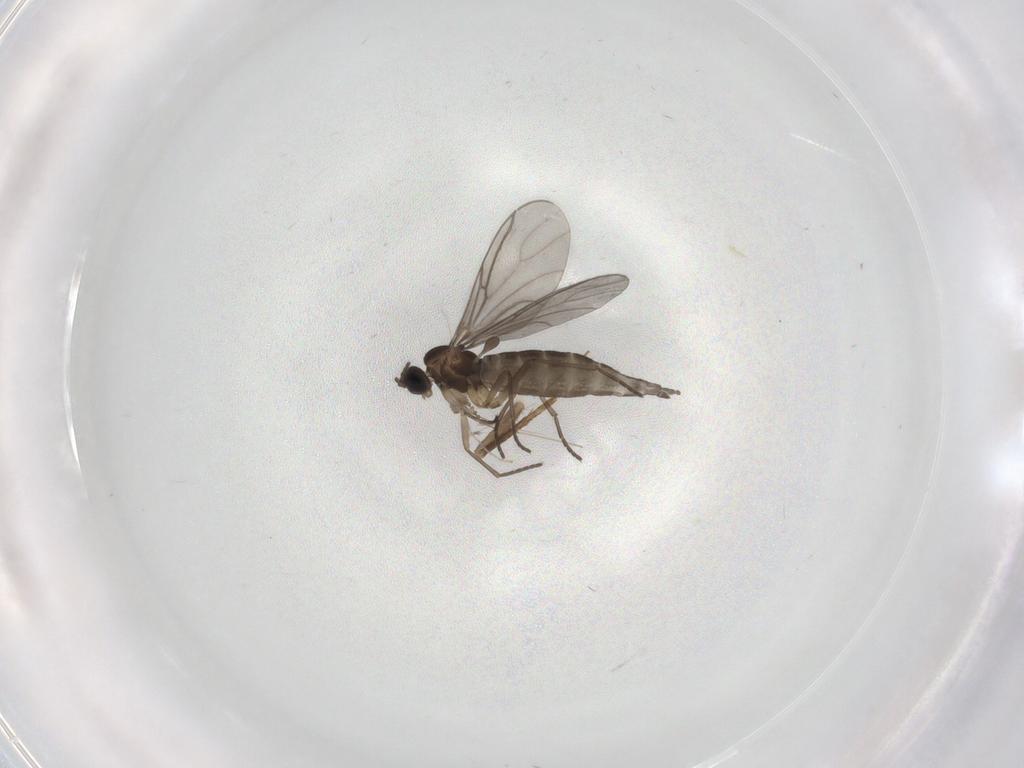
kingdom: Animalia
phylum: Arthropoda
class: Insecta
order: Diptera
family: Sciaridae
